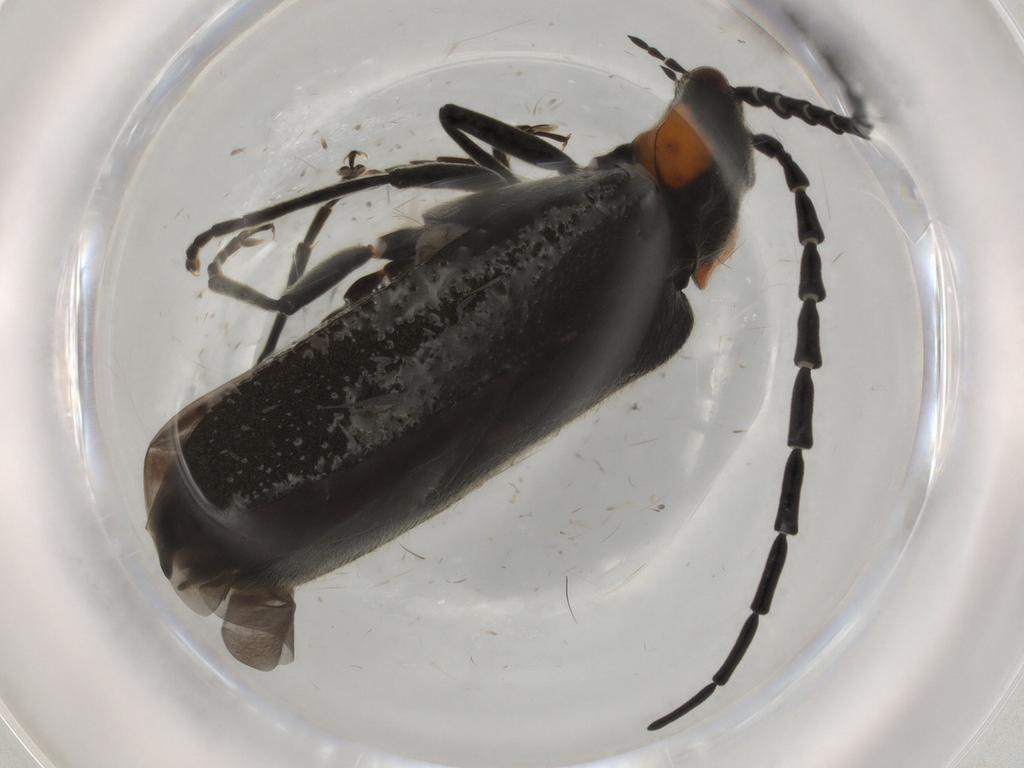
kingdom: Animalia
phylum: Arthropoda
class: Insecta
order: Coleoptera
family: Cantharidae
